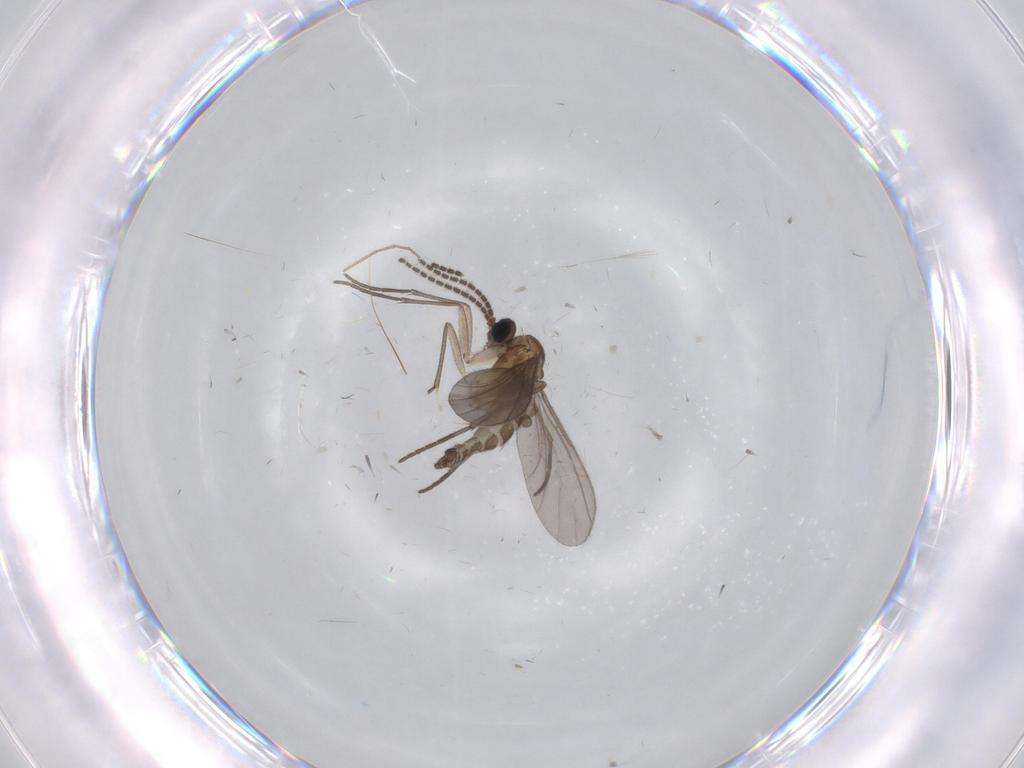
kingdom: Animalia
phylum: Arthropoda
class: Insecta
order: Diptera
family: Sciaridae
